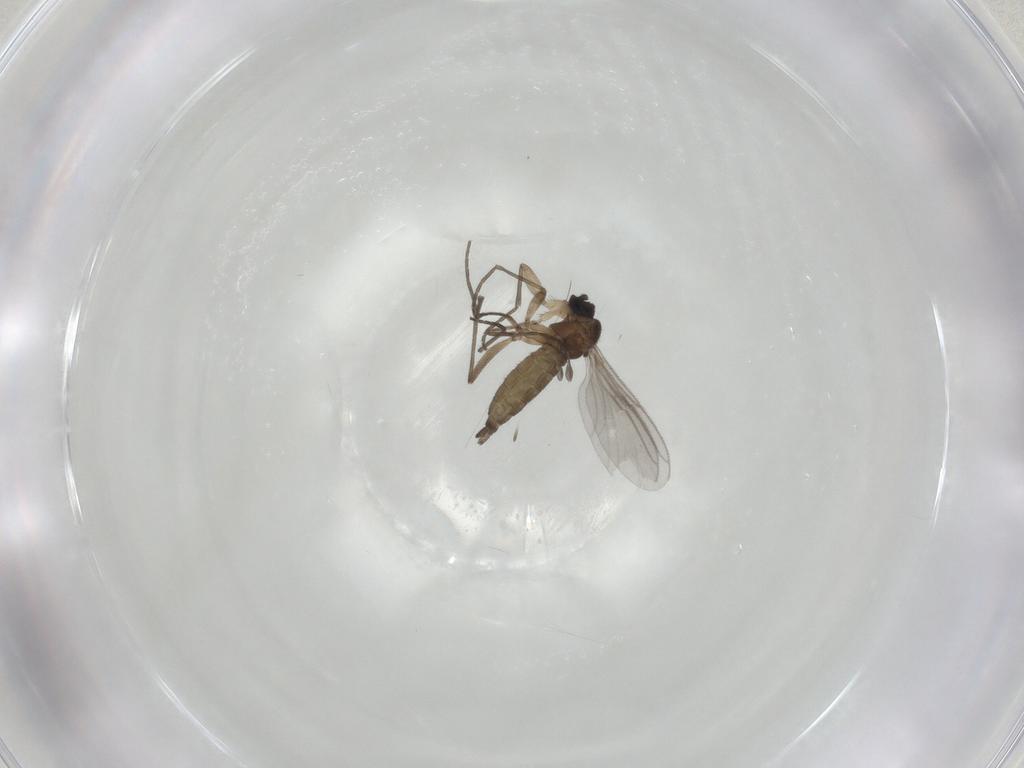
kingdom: Animalia
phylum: Arthropoda
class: Insecta
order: Diptera
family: Sciaridae
